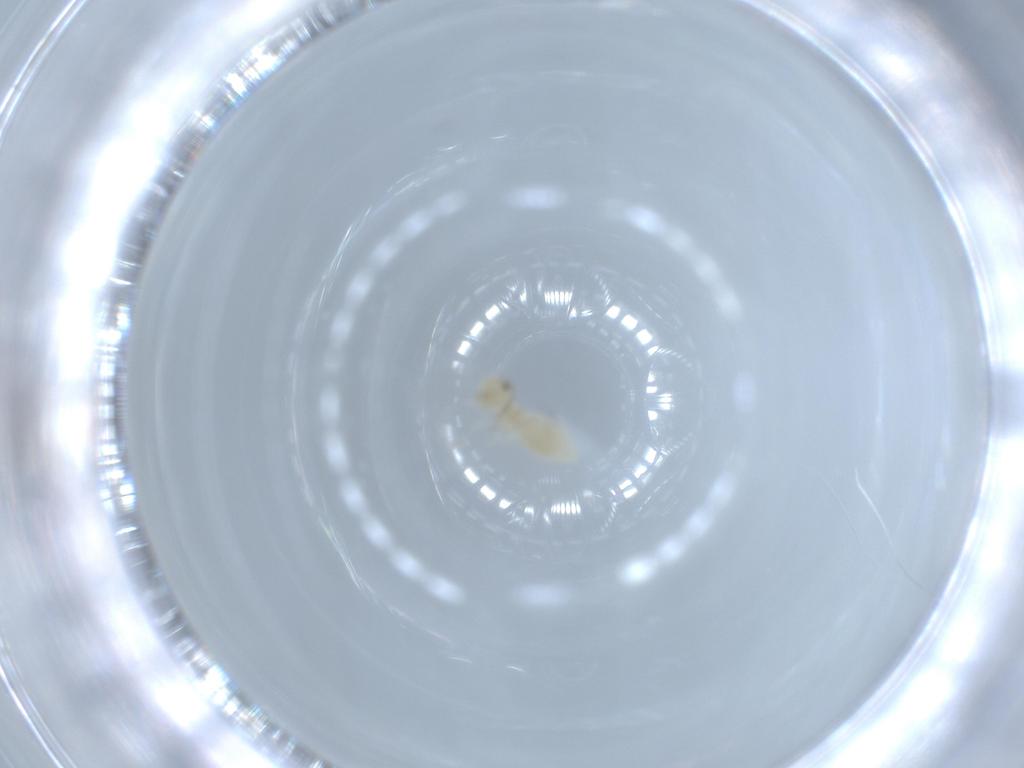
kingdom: Animalia
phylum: Arthropoda
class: Insecta
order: Psocodea
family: Caeciliusidae
